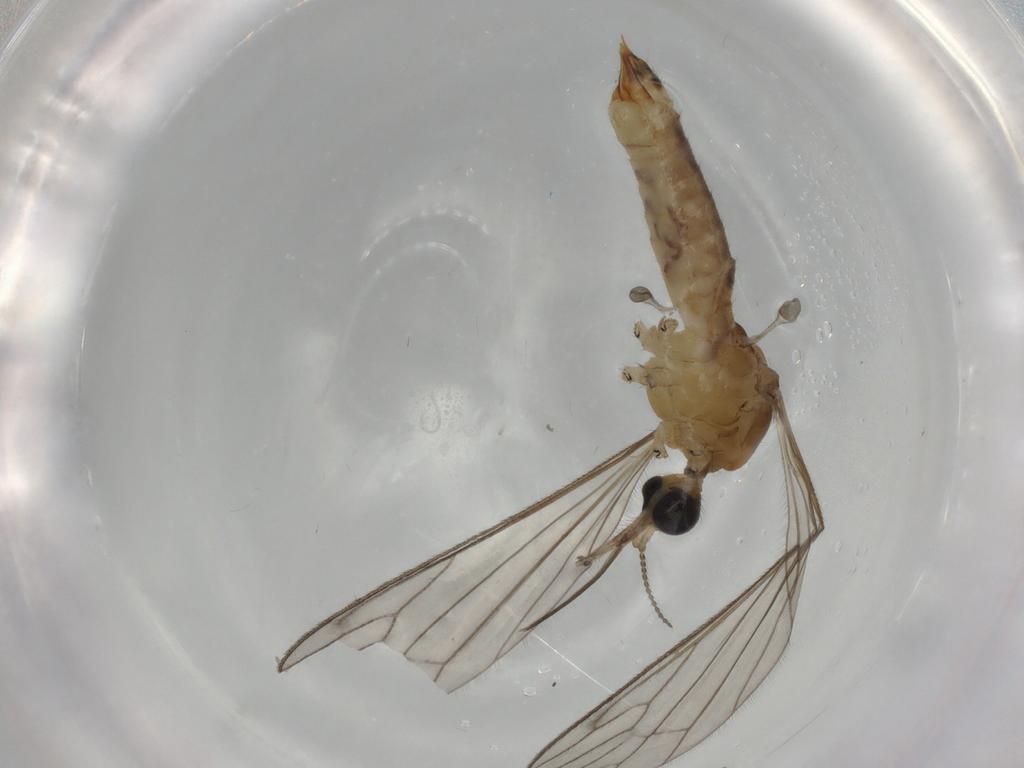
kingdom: Animalia
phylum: Arthropoda
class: Insecta
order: Diptera
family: Limoniidae
